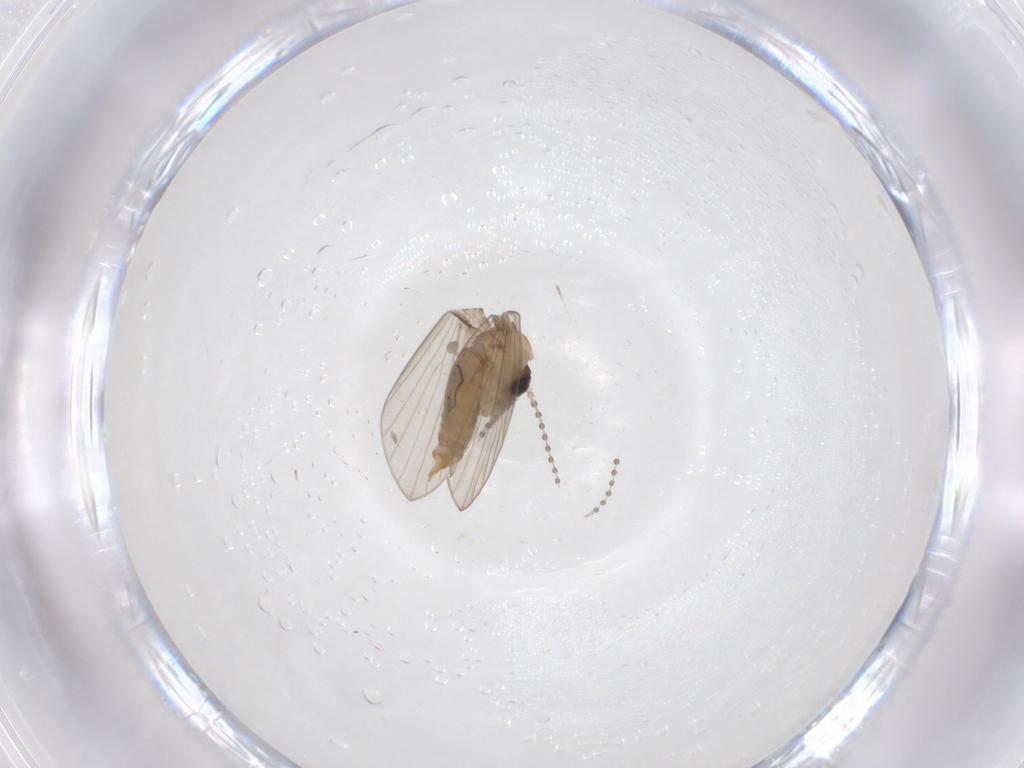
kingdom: Animalia
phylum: Arthropoda
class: Insecta
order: Diptera
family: Psychodidae
